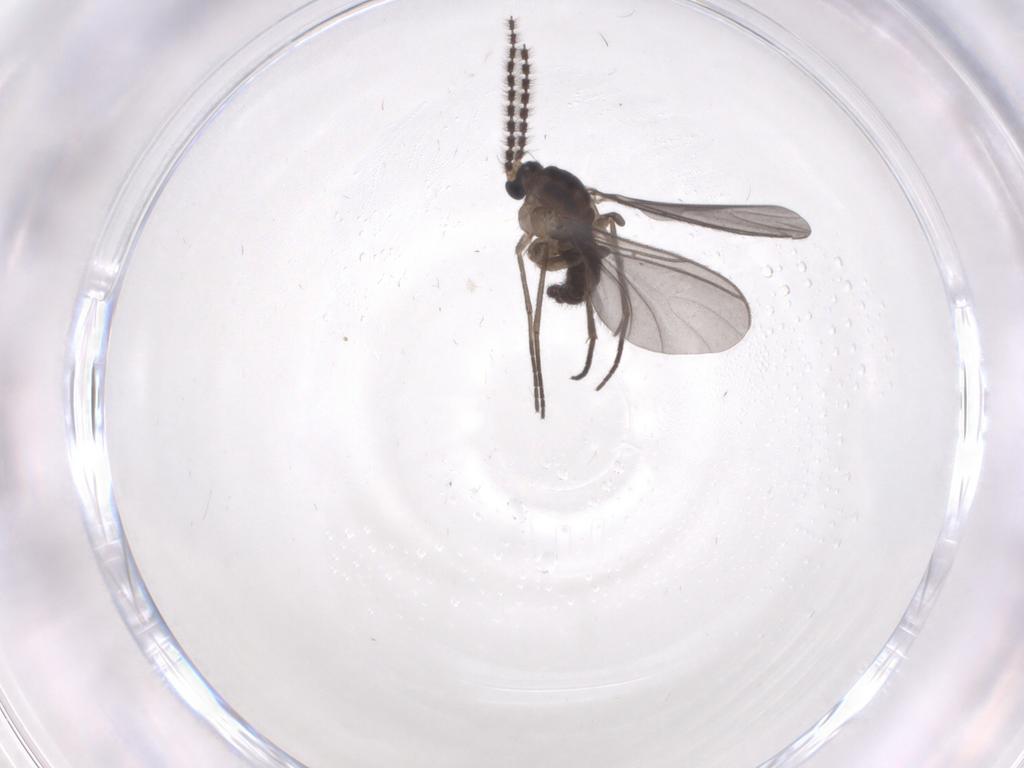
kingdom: Animalia
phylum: Arthropoda
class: Insecta
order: Diptera
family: Sciaridae
